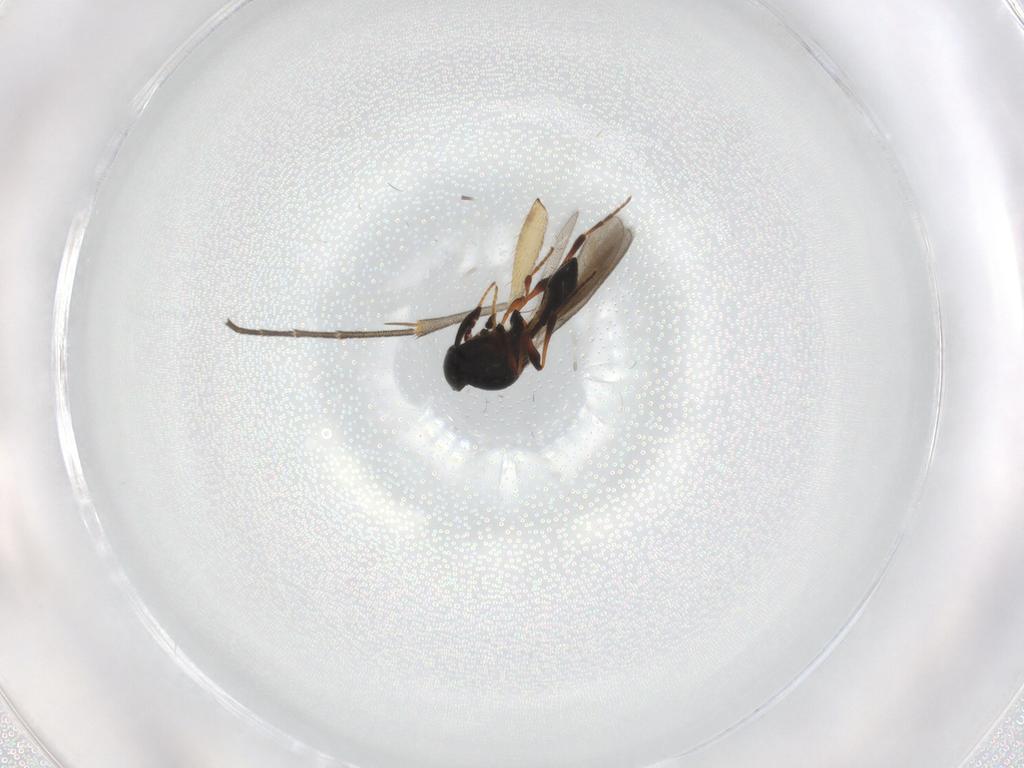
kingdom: Animalia
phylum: Arthropoda
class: Insecta
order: Hymenoptera
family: Platygastridae
